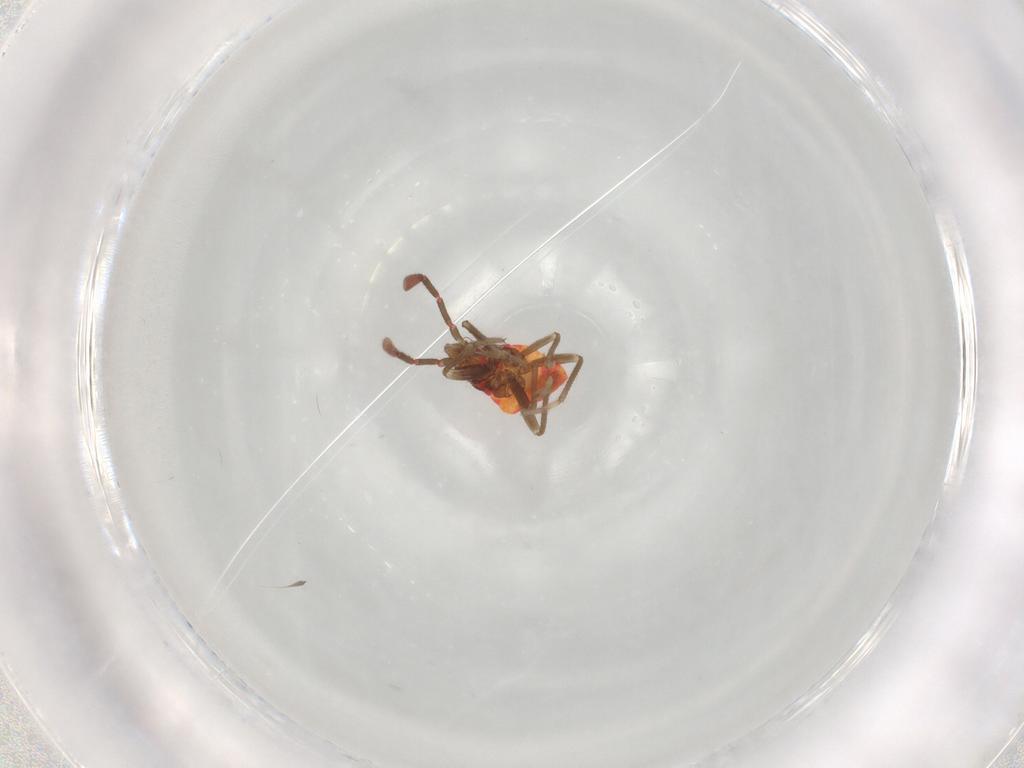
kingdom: Animalia
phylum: Arthropoda
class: Insecta
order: Hemiptera
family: Rhyparochromidae
